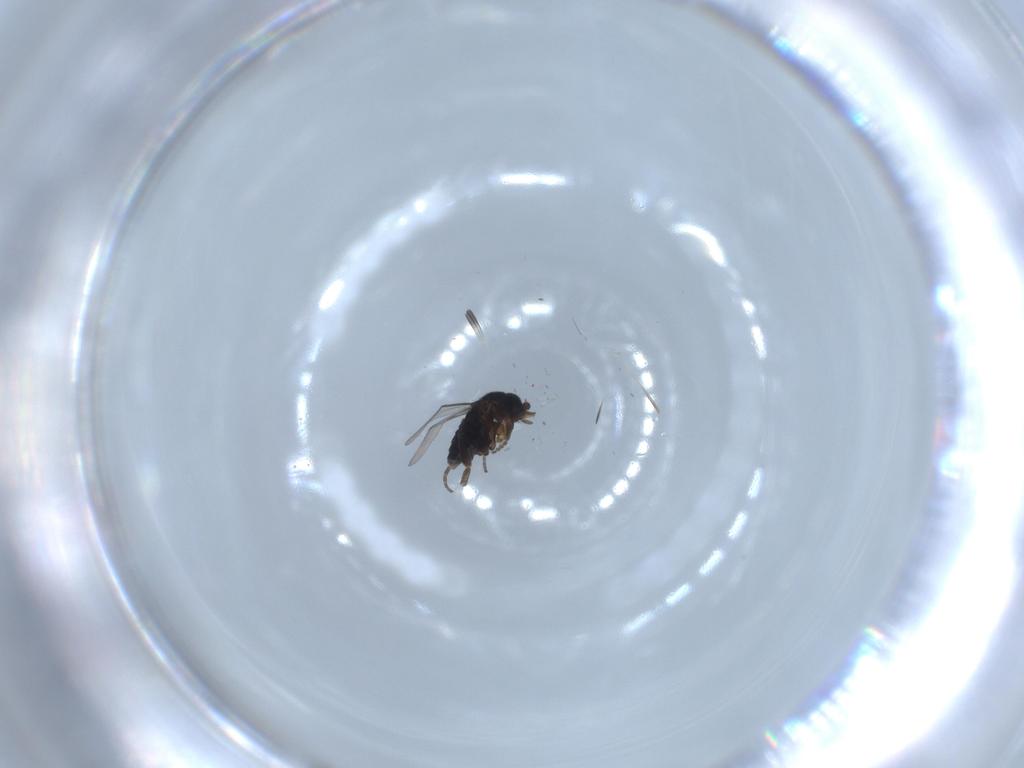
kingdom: Animalia
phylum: Arthropoda
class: Insecta
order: Diptera
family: Phoridae
